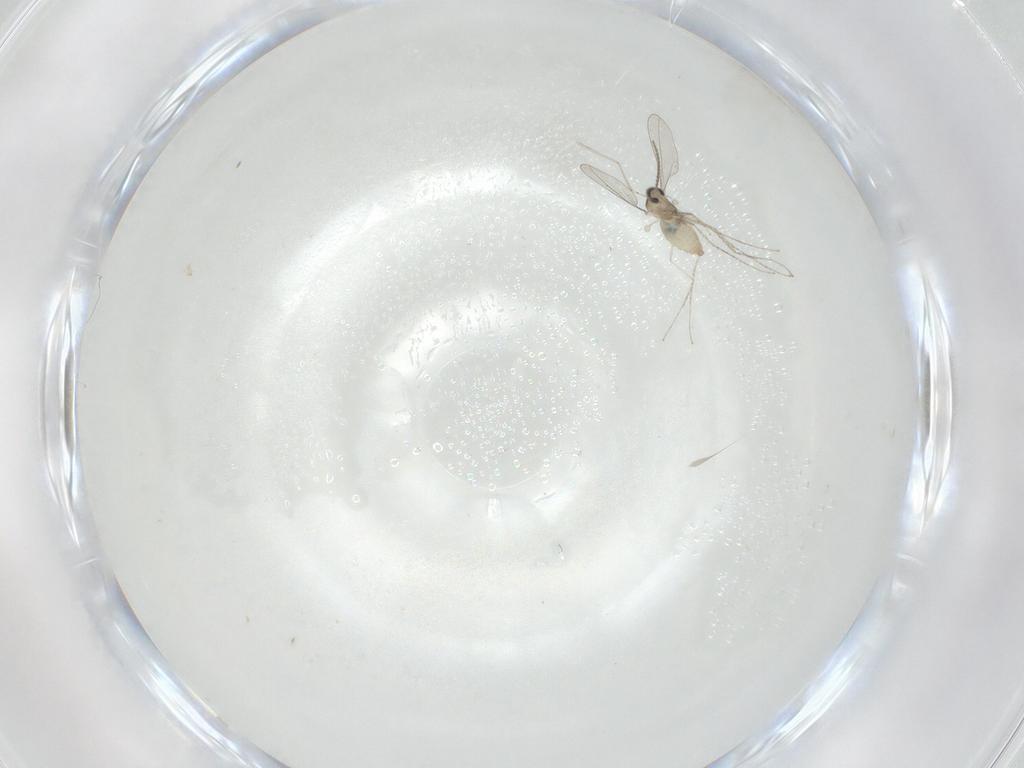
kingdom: Animalia
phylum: Arthropoda
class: Insecta
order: Diptera
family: Cecidomyiidae
